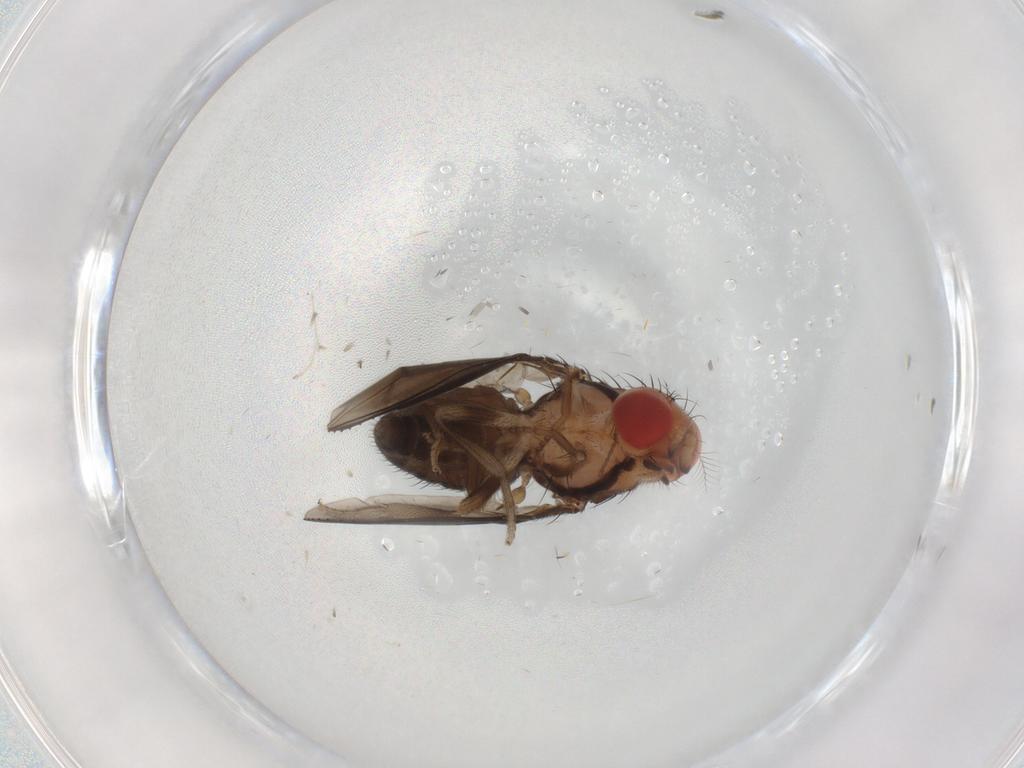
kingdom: Animalia
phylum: Arthropoda
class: Insecta
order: Diptera
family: Psychodidae
